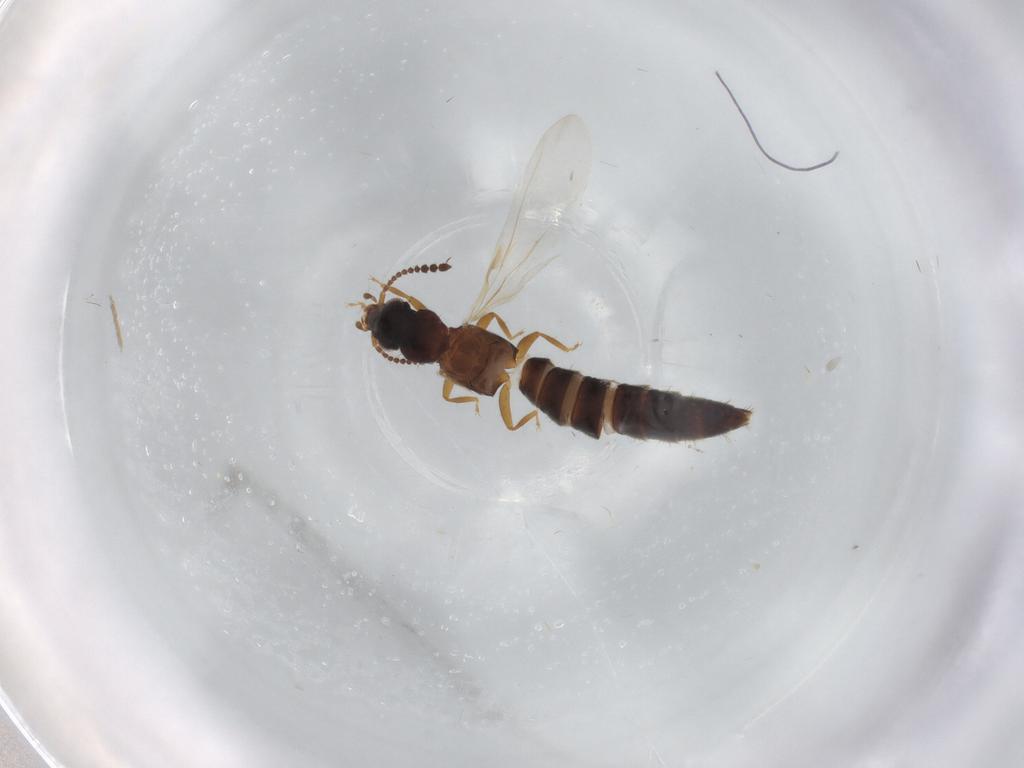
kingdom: Animalia
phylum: Arthropoda
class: Insecta
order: Coleoptera
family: Staphylinidae
